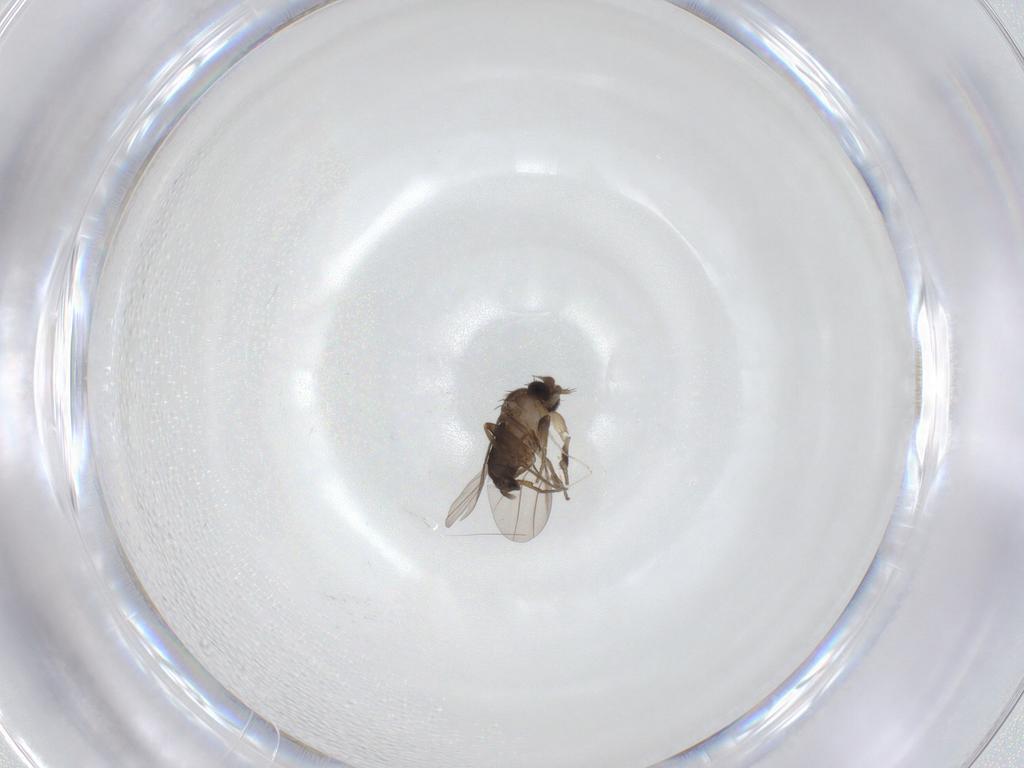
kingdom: Animalia
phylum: Arthropoda
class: Insecta
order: Diptera
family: Phoridae
